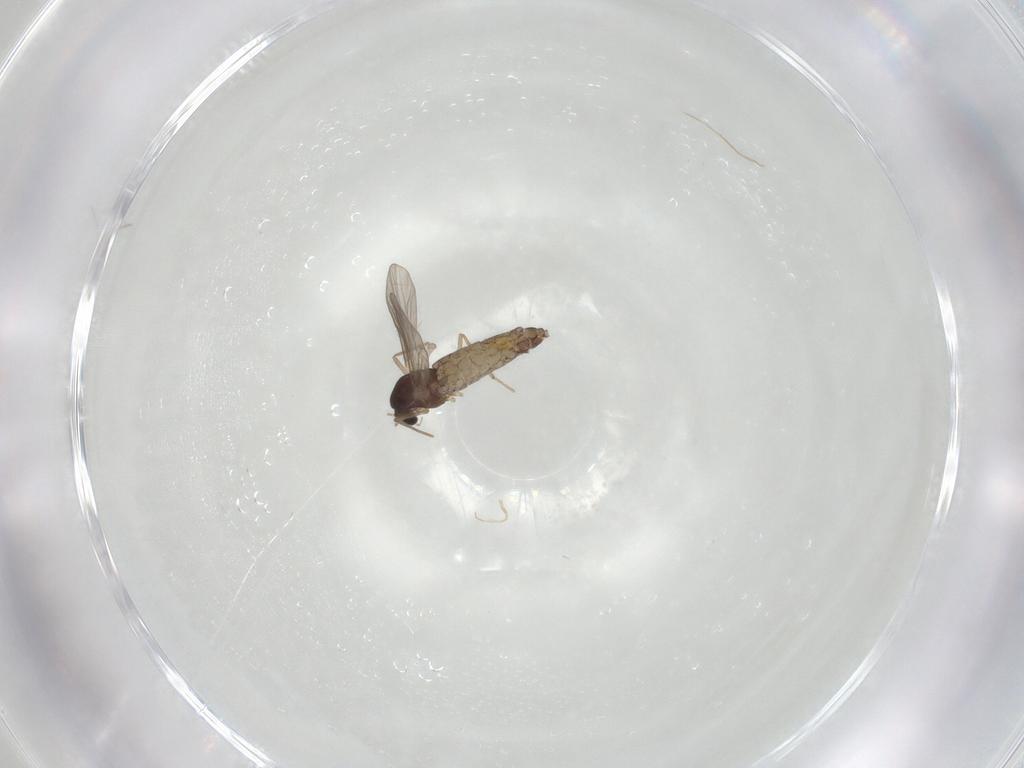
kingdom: Animalia
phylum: Arthropoda
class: Insecta
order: Diptera
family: Chironomidae
